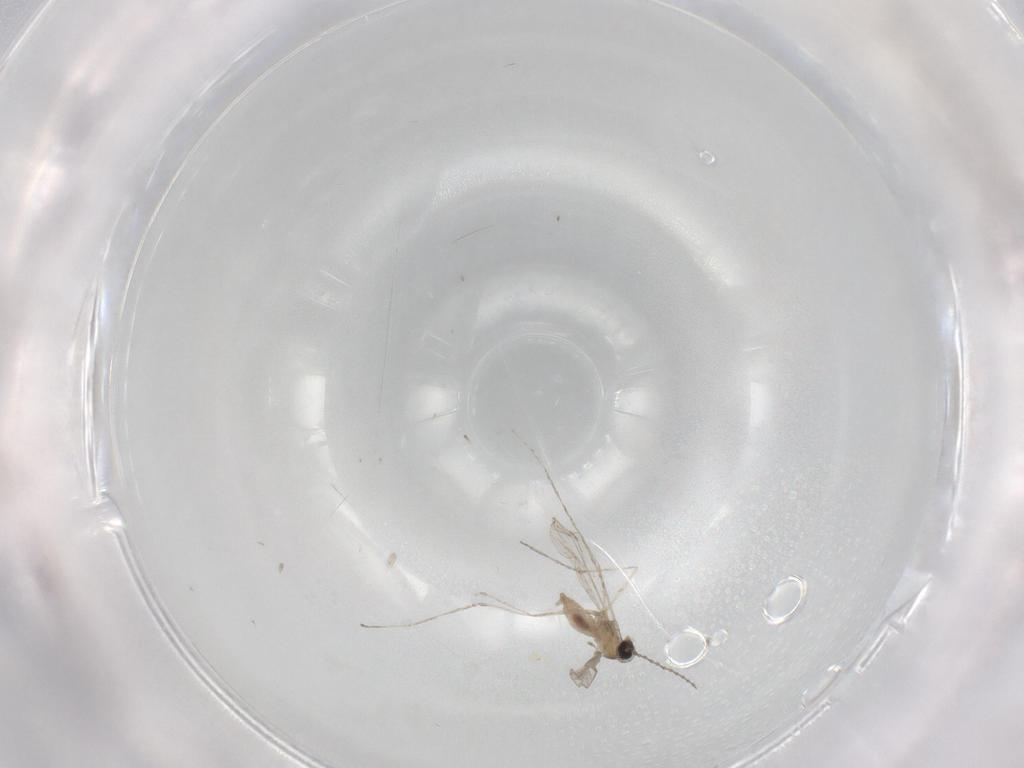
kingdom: Animalia
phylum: Arthropoda
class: Insecta
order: Diptera
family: Cecidomyiidae
